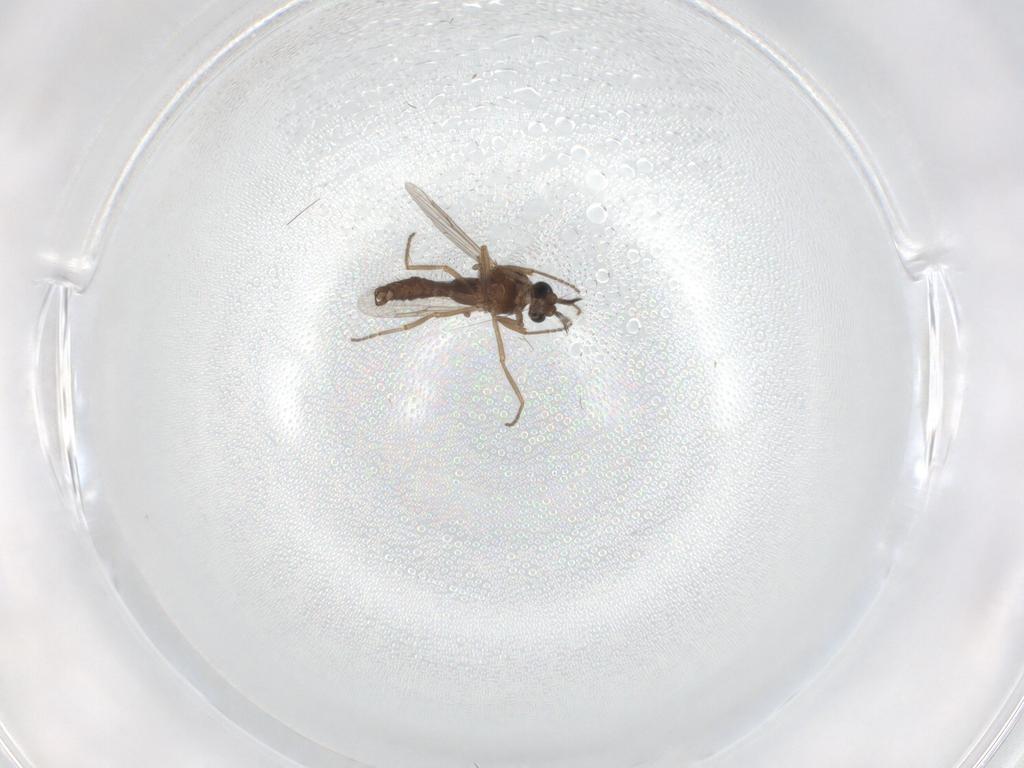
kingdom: Animalia
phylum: Arthropoda
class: Insecta
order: Diptera
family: Ceratopogonidae
